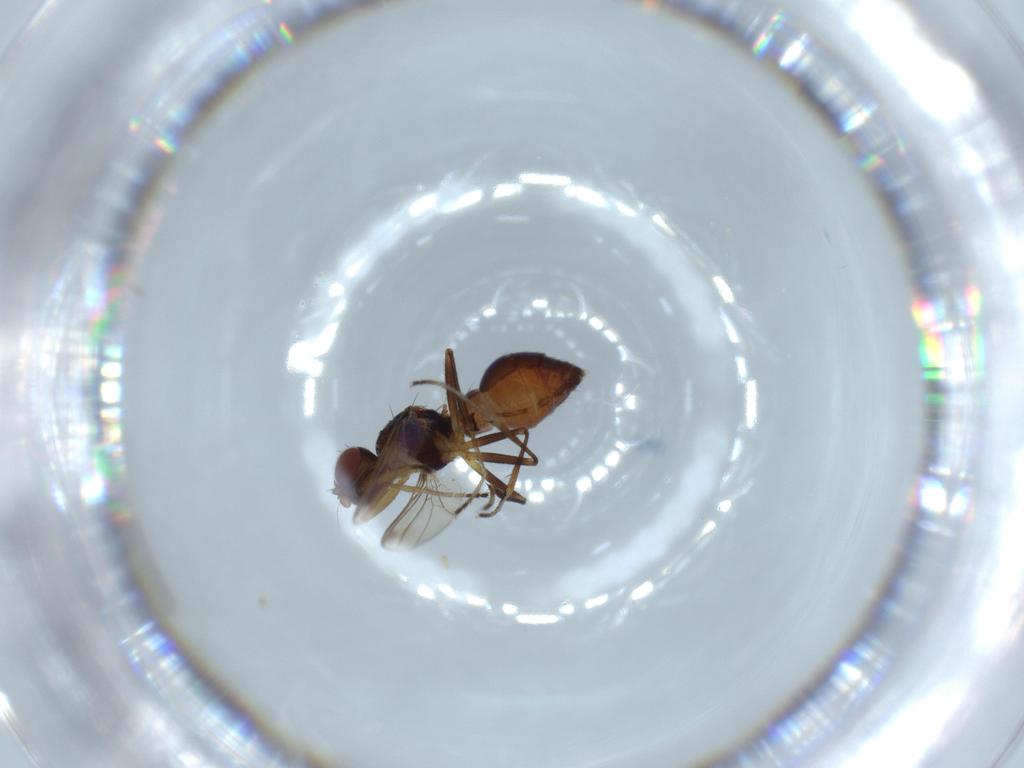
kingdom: Animalia
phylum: Arthropoda
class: Insecta
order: Diptera
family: Sepsidae
